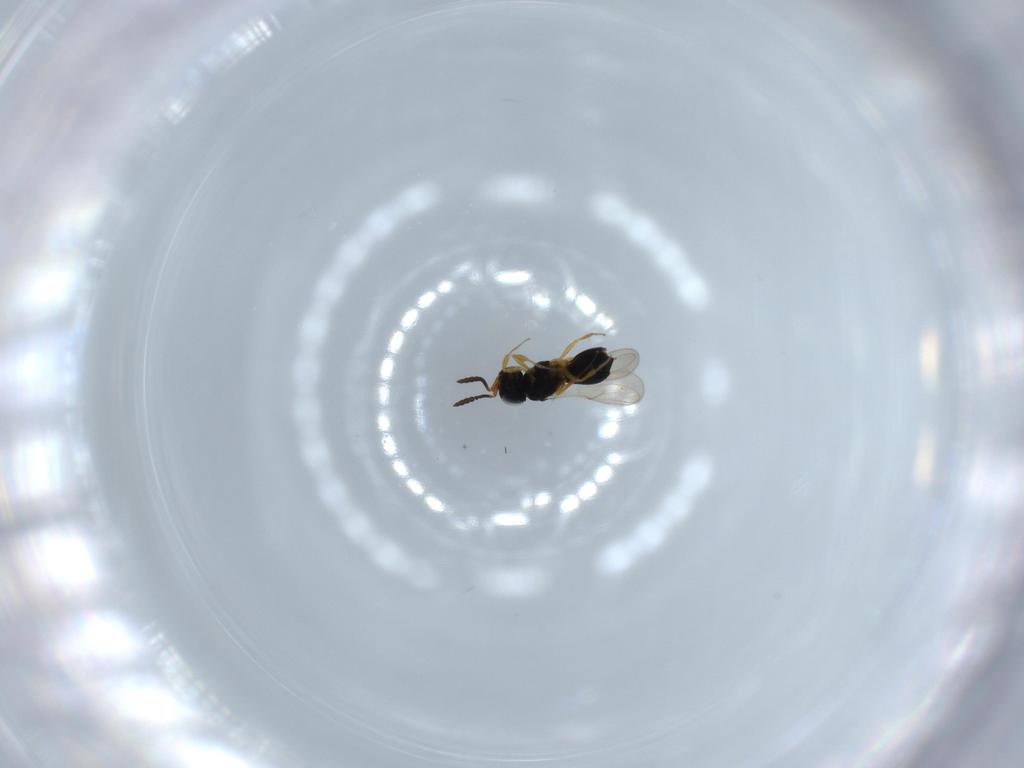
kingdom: Animalia
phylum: Arthropoda
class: Insecta
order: Hymenoptera
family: Scelionidae
